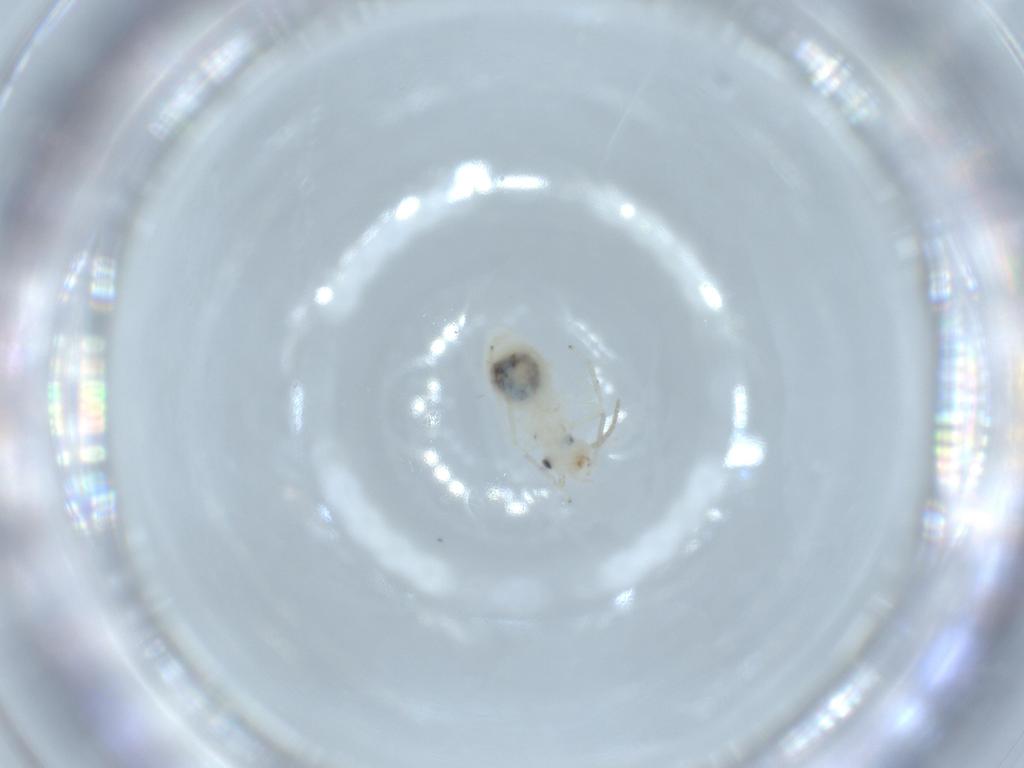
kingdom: Animalia
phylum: Arthropoda
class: Insecta
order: Psocodea
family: Caeciliusidae
